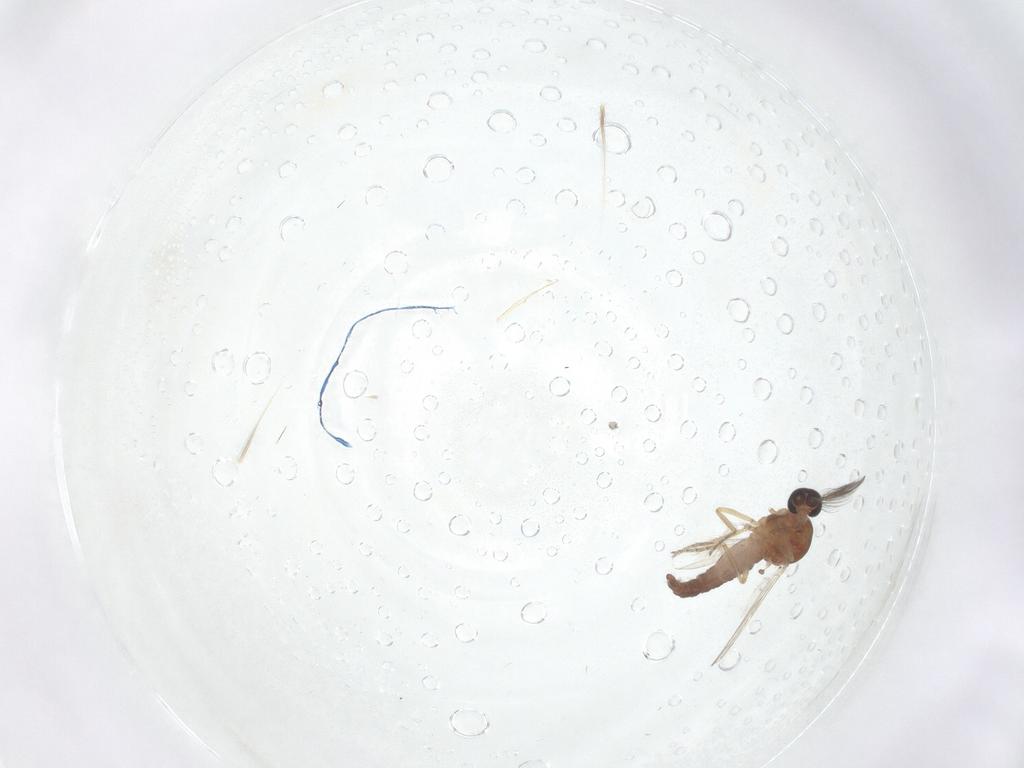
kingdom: Animalia
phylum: Arthropoda
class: Insecta
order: Diptera
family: Ceratopogonidae
